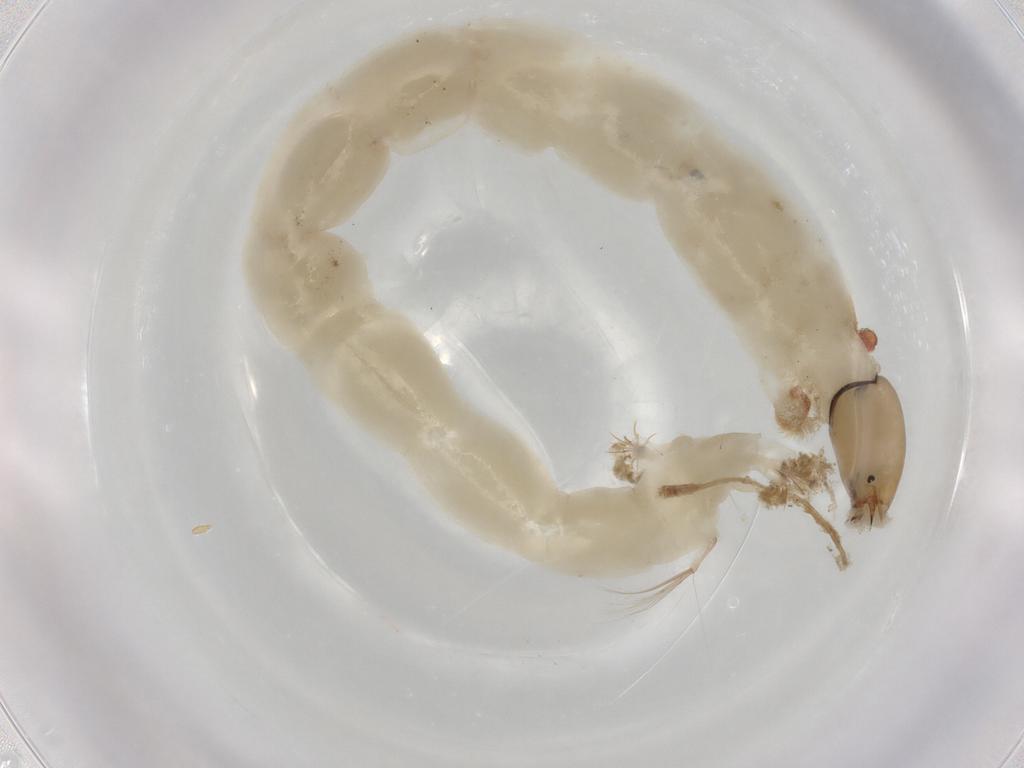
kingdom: Animalia
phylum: Arthropoda
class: Insecta
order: Diptera
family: Chironomidae
